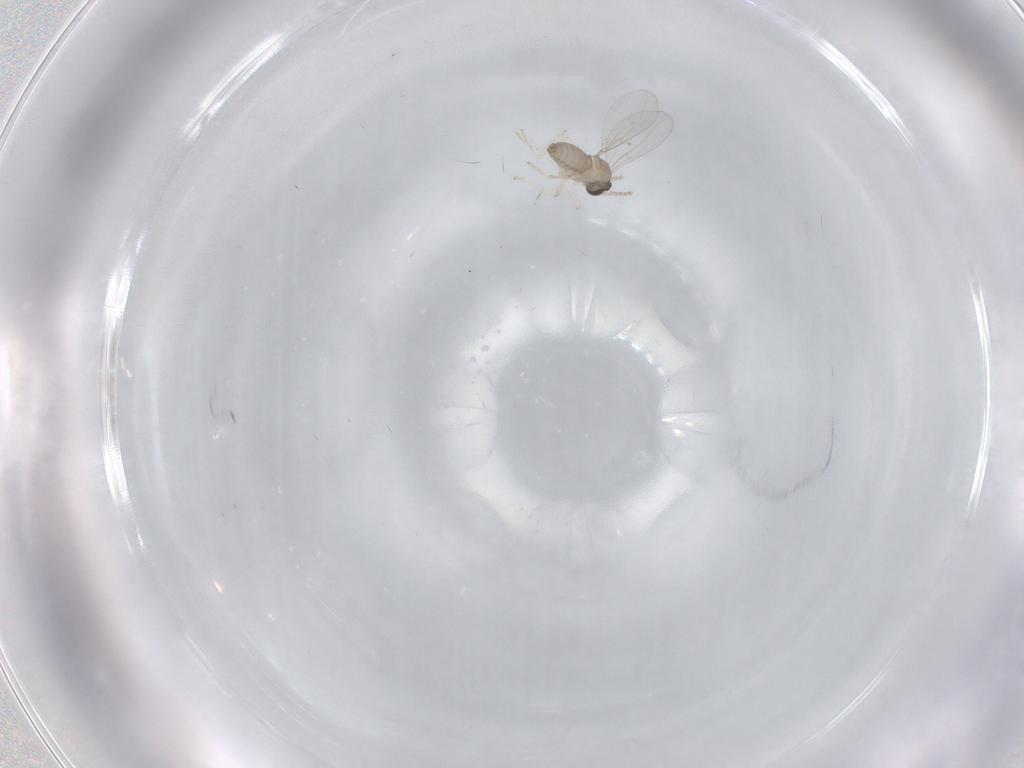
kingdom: Animalia
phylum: Arthropoda
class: Insecta
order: Diptera
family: Cecidomyiidae
